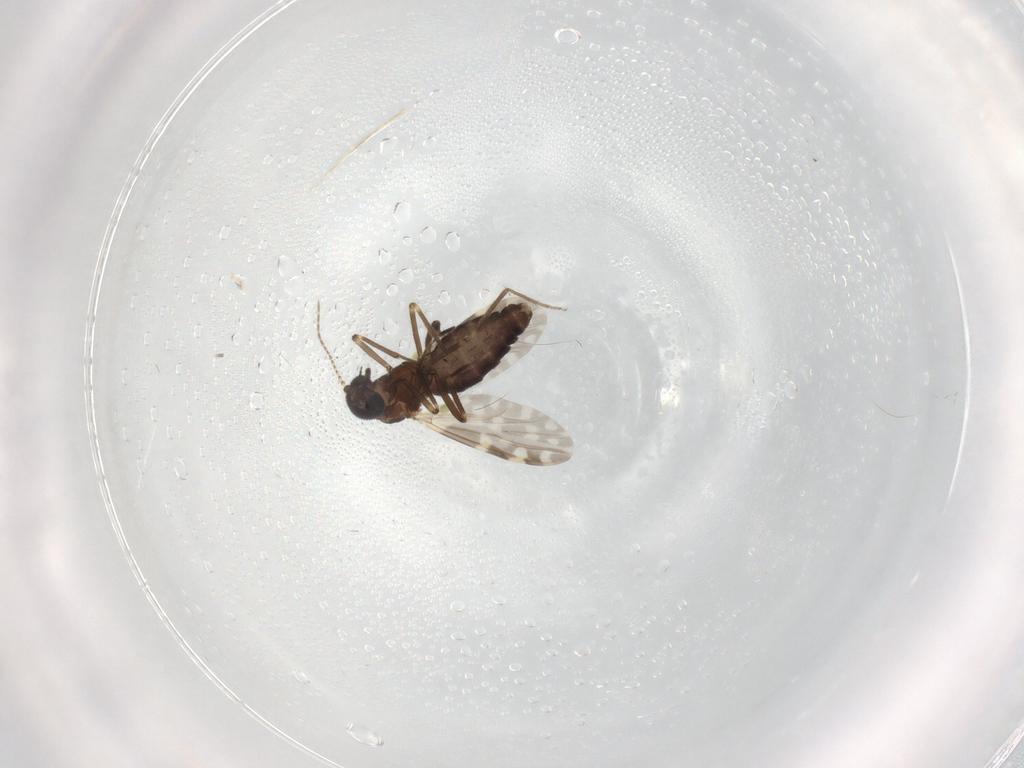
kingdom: Animalia
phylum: Arthropoda
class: Insecta
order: Diptera
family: Ceratopogonidae
